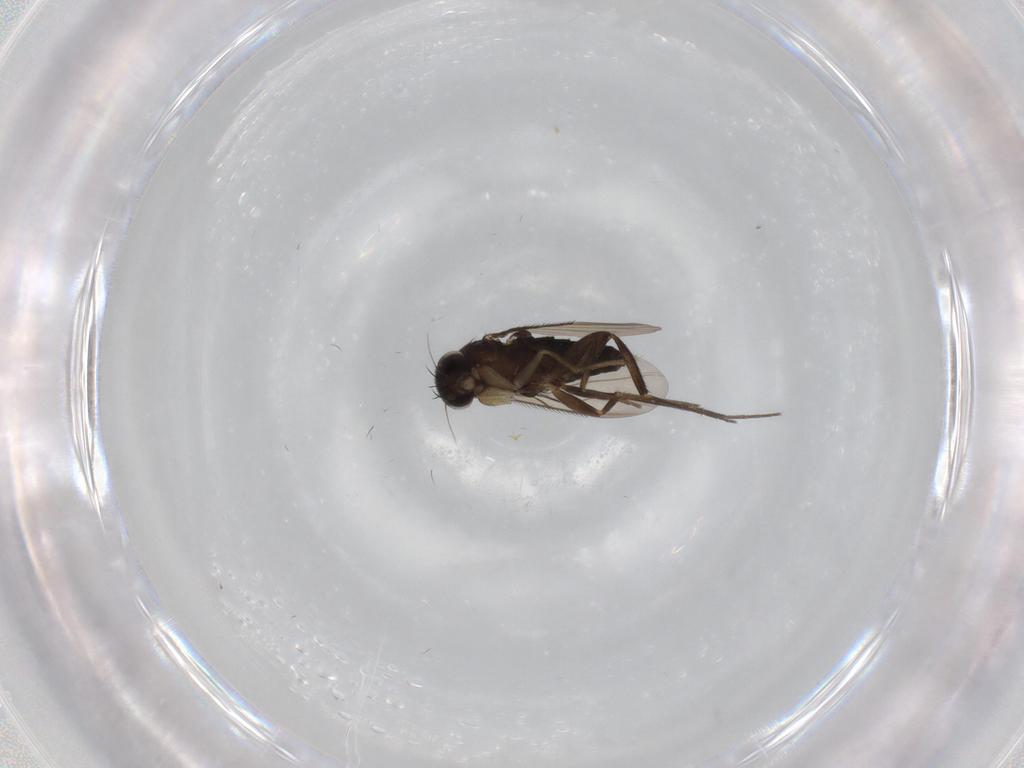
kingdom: Animalia
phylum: Arthropoda
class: Insecta
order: Diptera
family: Phoridae
